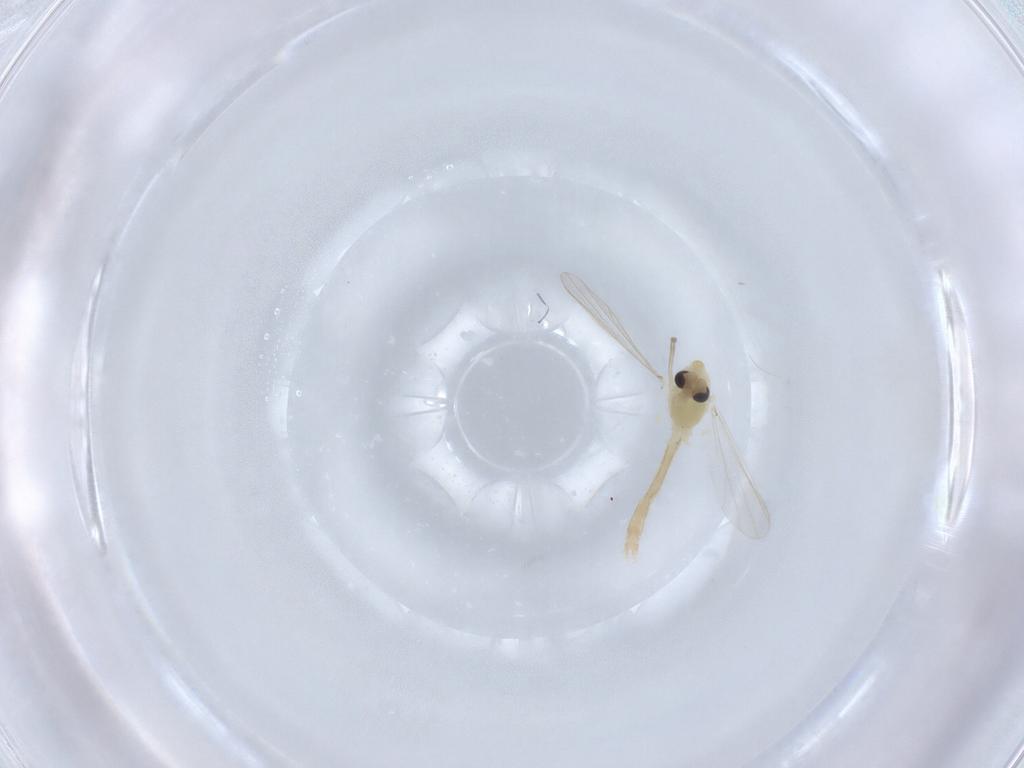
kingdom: Animalia
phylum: Arthropoda
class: Insecta
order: Diptera
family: Chironomidae
